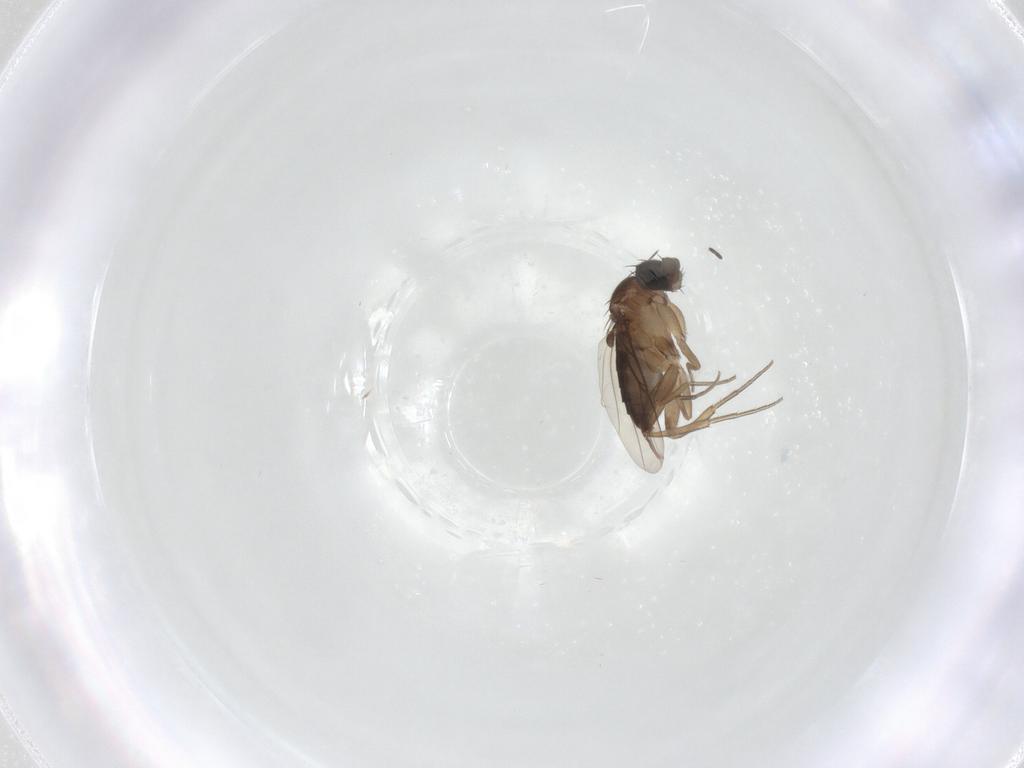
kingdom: Animalia
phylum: Arthropoda
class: Insecta
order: Diptera
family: Sciaridae
